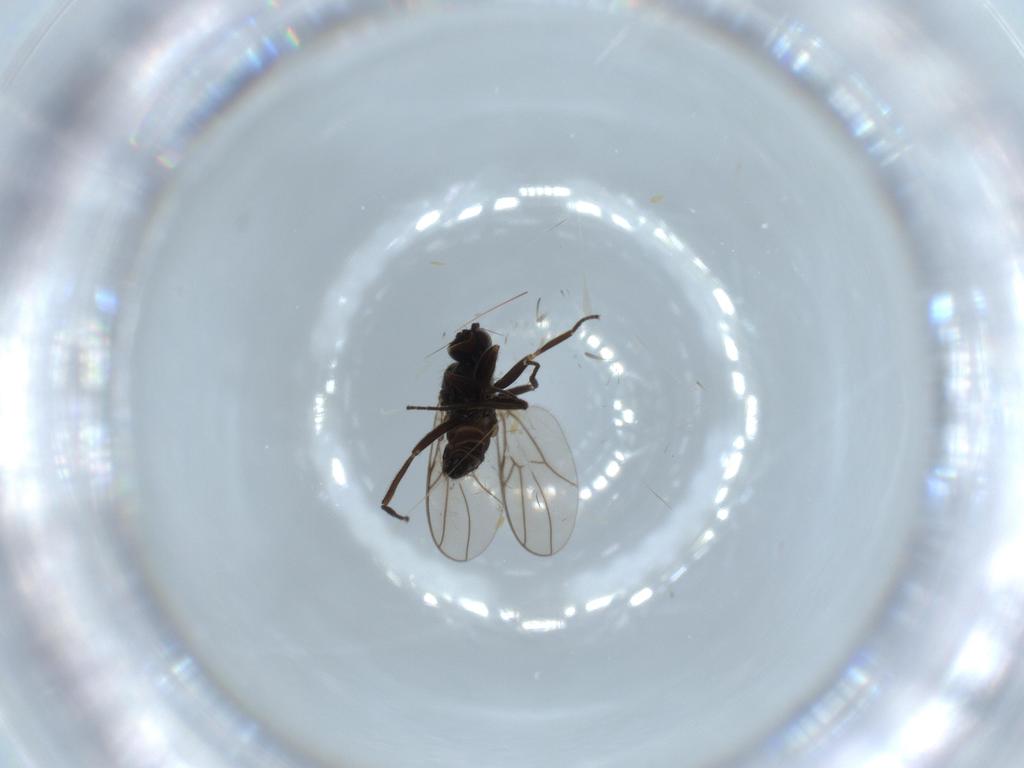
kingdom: Animalia
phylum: Arthropoda
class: Insecta
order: Diptera
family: Hybotidae
